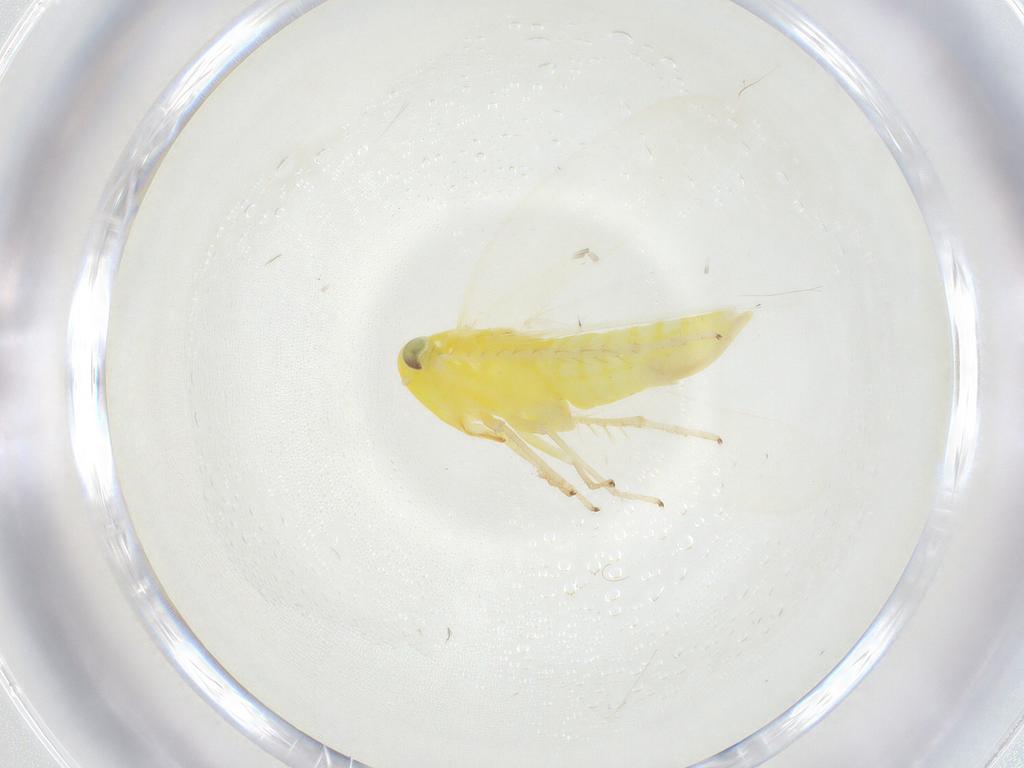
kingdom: Animalia
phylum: Arthropoda
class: Insecta
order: Hemiptera
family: Cicadellidae
